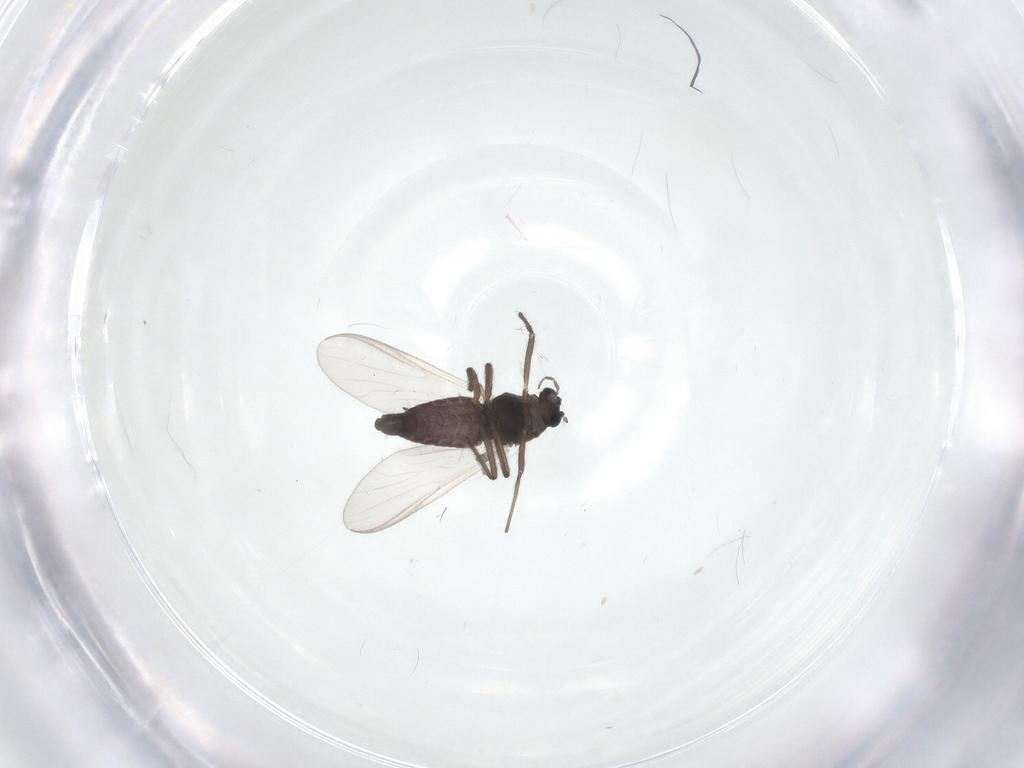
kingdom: Animalia
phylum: Arthropoda
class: Insecta
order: Diptera
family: Chironomidae
